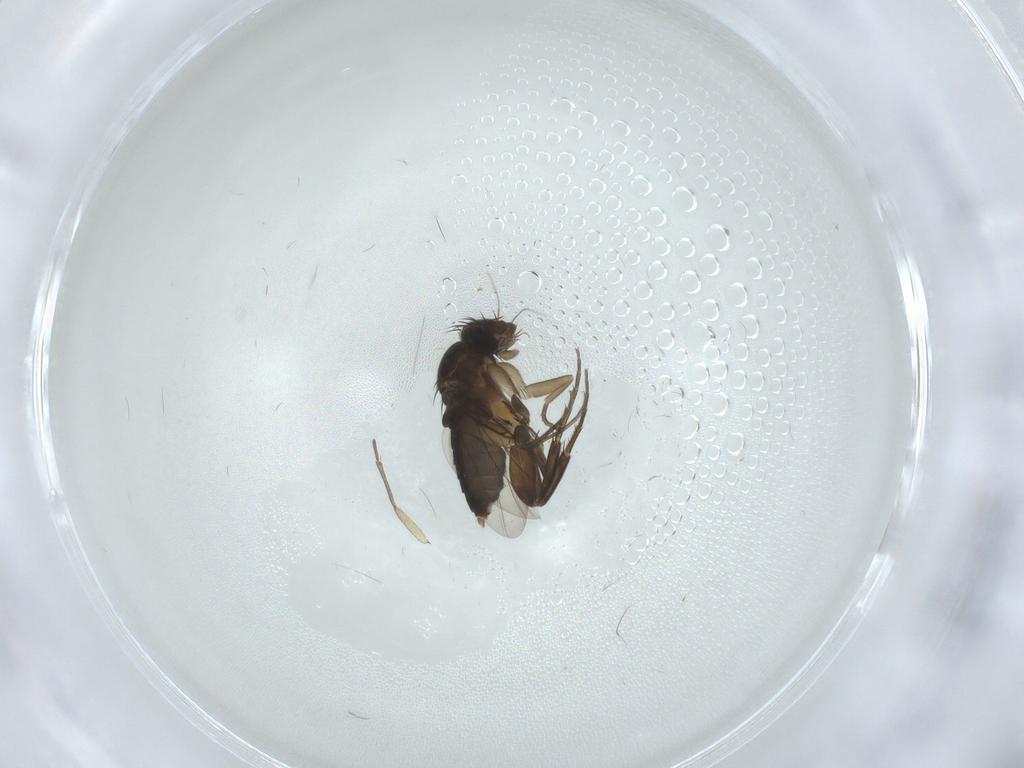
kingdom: Animalia
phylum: Arthropoda
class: Insecta
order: Diptera
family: Phoridae
